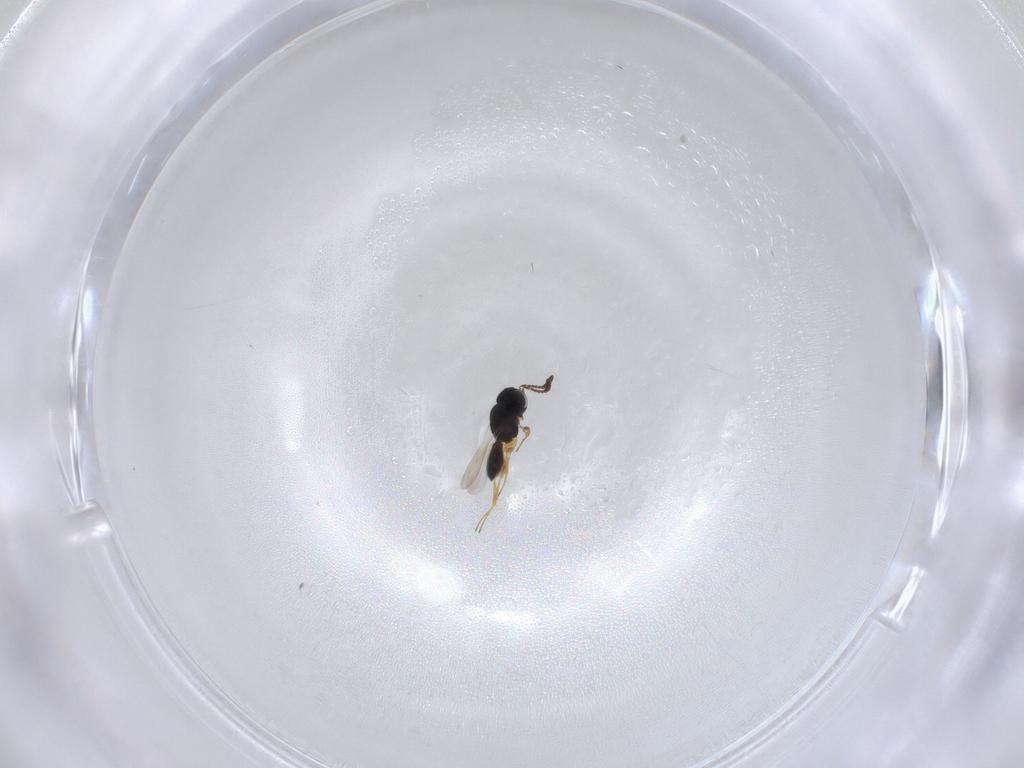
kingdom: Animalia
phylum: Arthropoda
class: Insecta
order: Hymenoptera
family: Scelionidae
